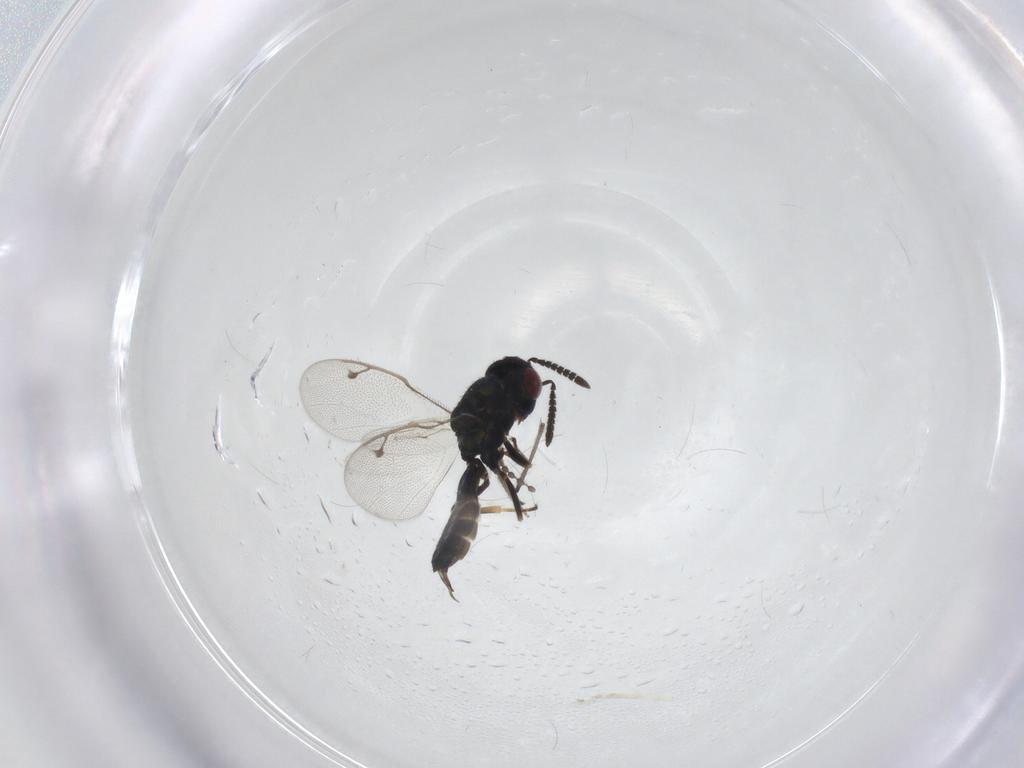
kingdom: Animalia
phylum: Arthropoda
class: Insecta
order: Hymenoptera
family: Pteromalidae
